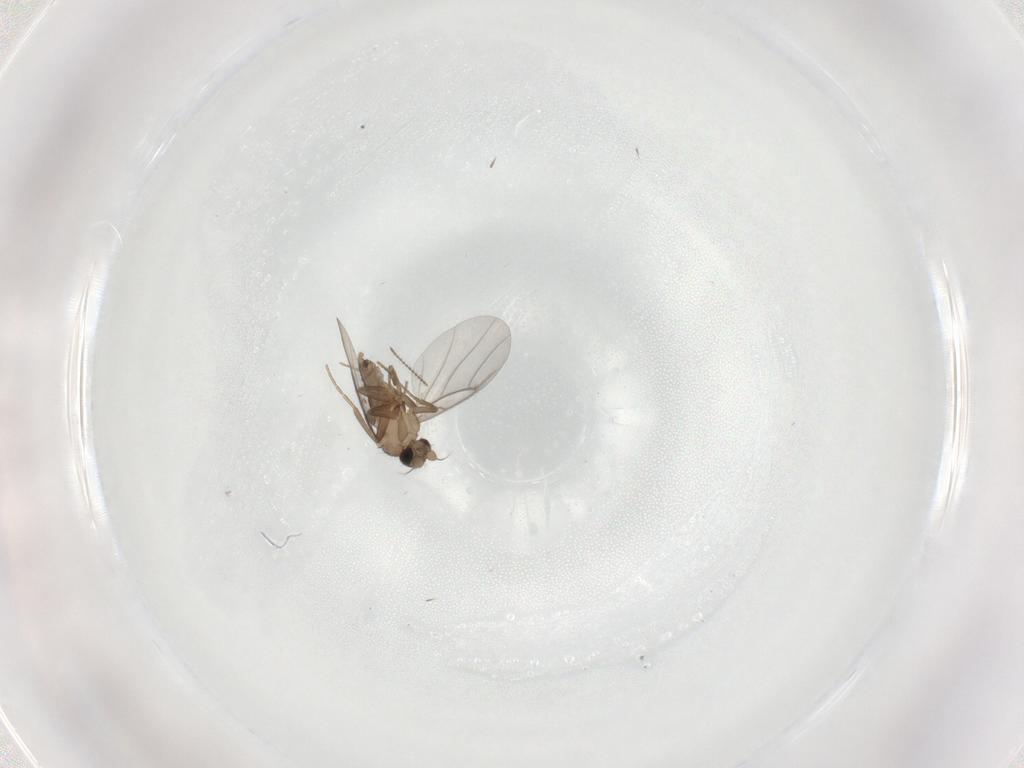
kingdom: Animalia
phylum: Arthropoda
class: Insecta
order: Diptera
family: Ceratopogonidae
